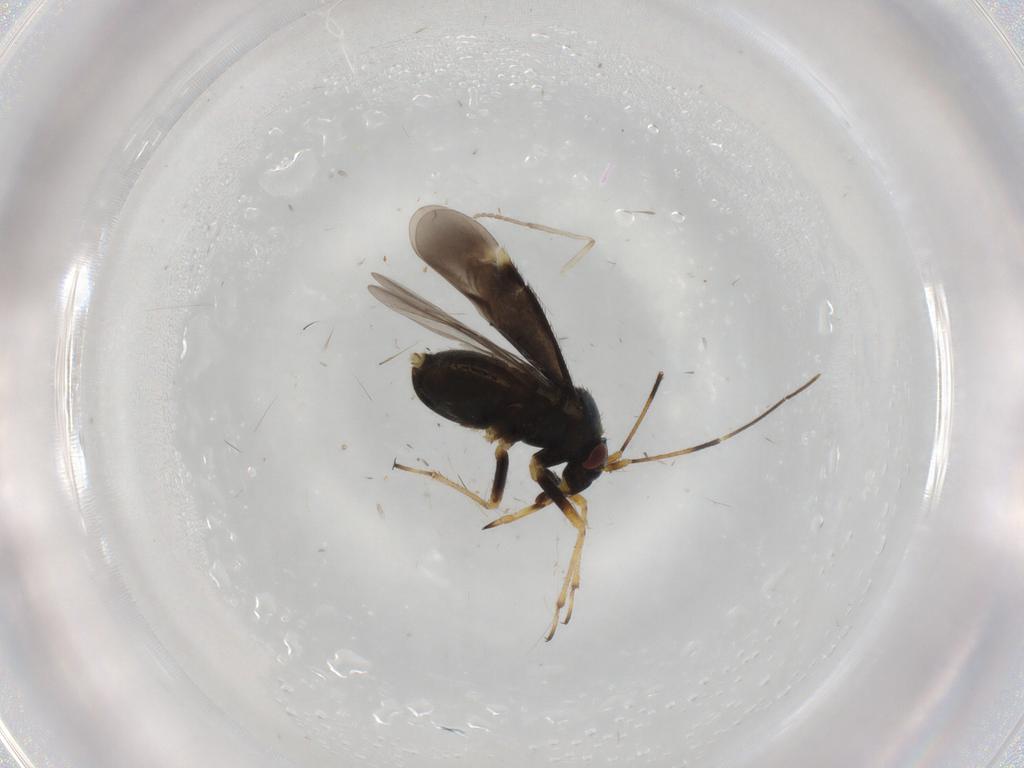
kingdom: Animalia
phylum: Arthropoda
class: Insecta
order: Hemiptera
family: Miridae
